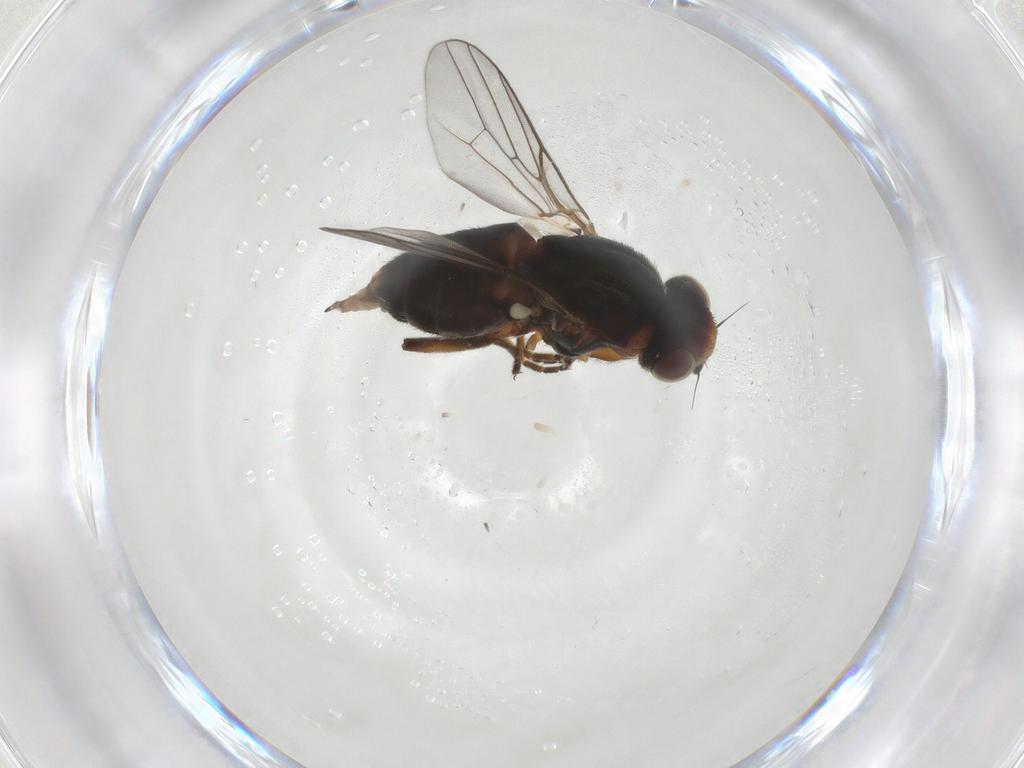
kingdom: Animalia
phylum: Arthropoda
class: Insecta
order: Diptera
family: Chloropidae
